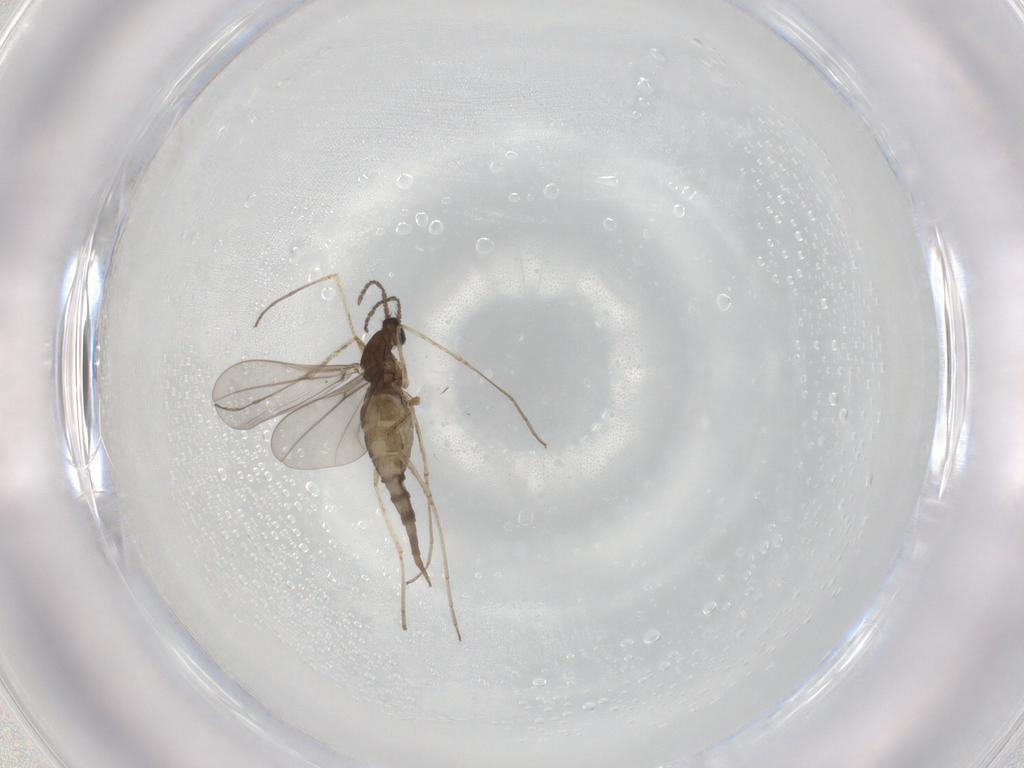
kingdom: Animalia
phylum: Arthropoda
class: Insecta
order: Diptera
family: Cecidomyiidae
